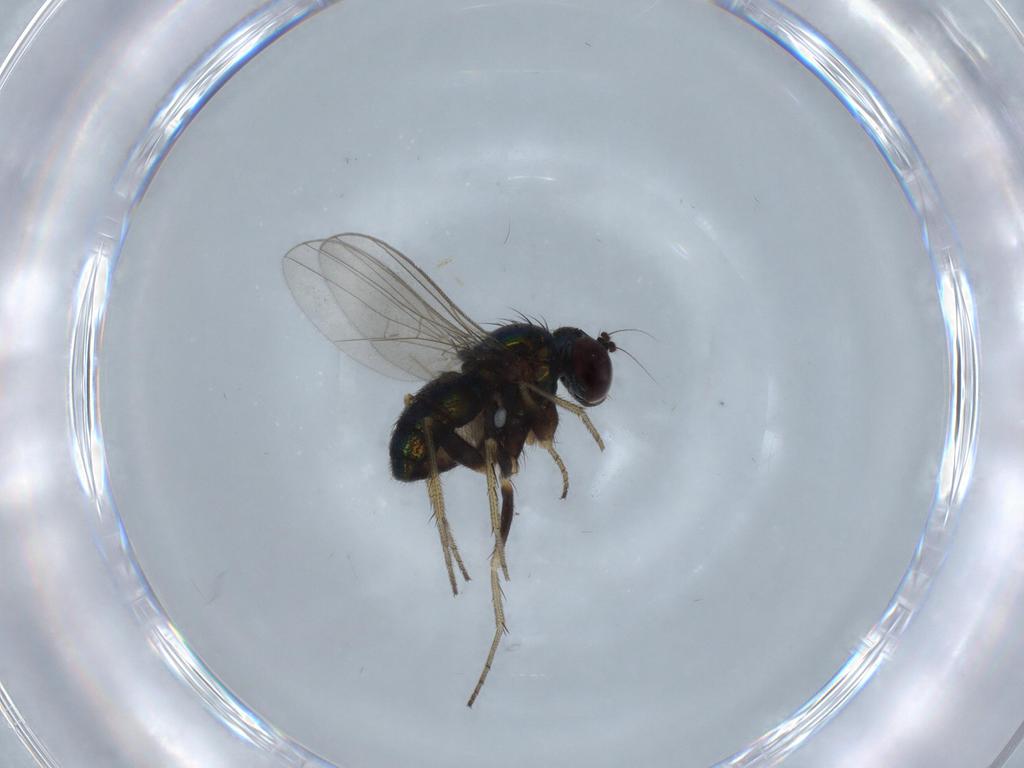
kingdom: Animalia
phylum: Arthropoda
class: Insecta
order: Diptera
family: Dolichopodidae
